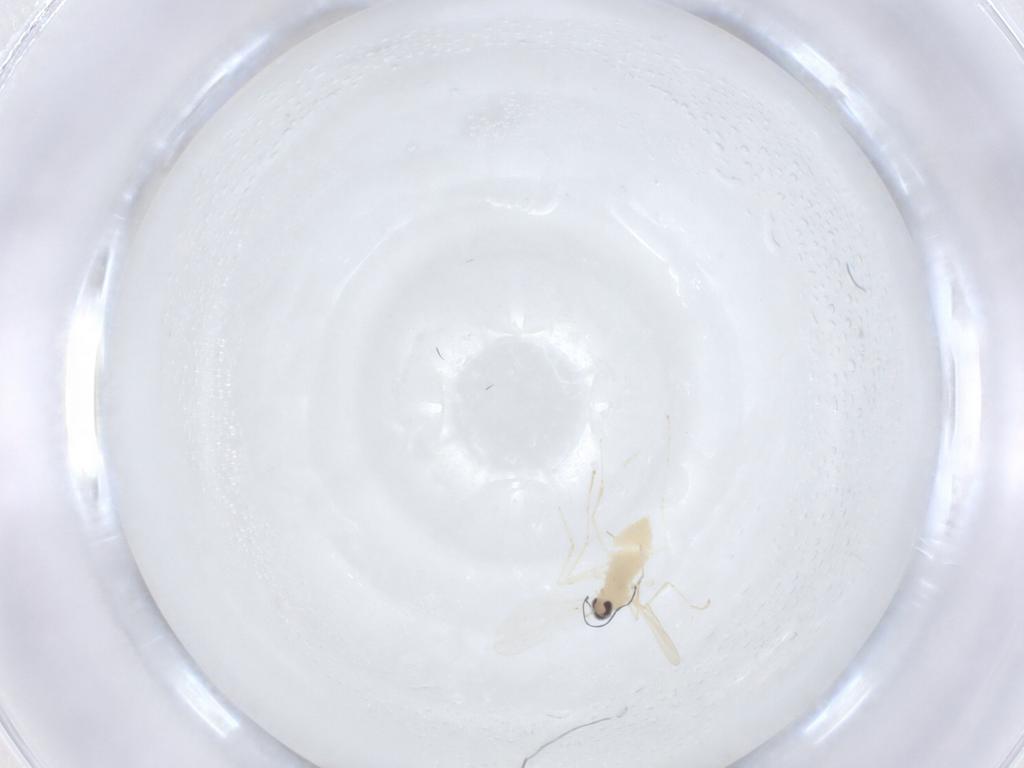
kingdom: Animalia
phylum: Arthropoda
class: Insecta
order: Diptera
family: Cecidomyiidae
